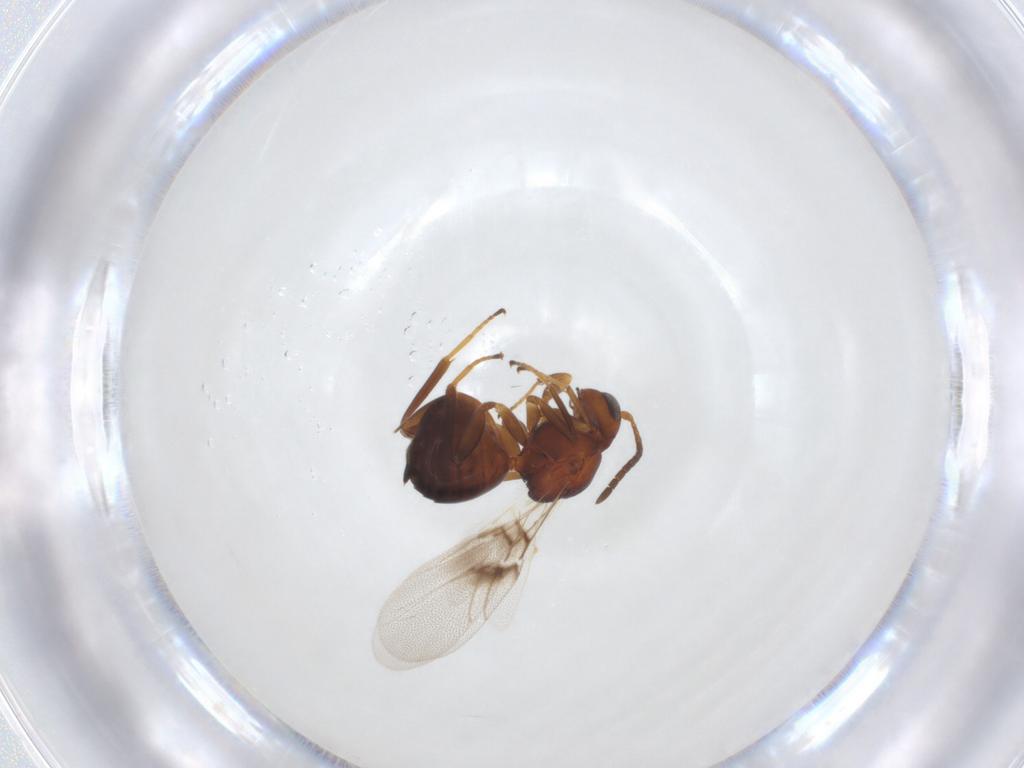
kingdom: Animalia
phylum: Arthropoda
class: Insecta
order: Hymenoptera
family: Cynipidae
